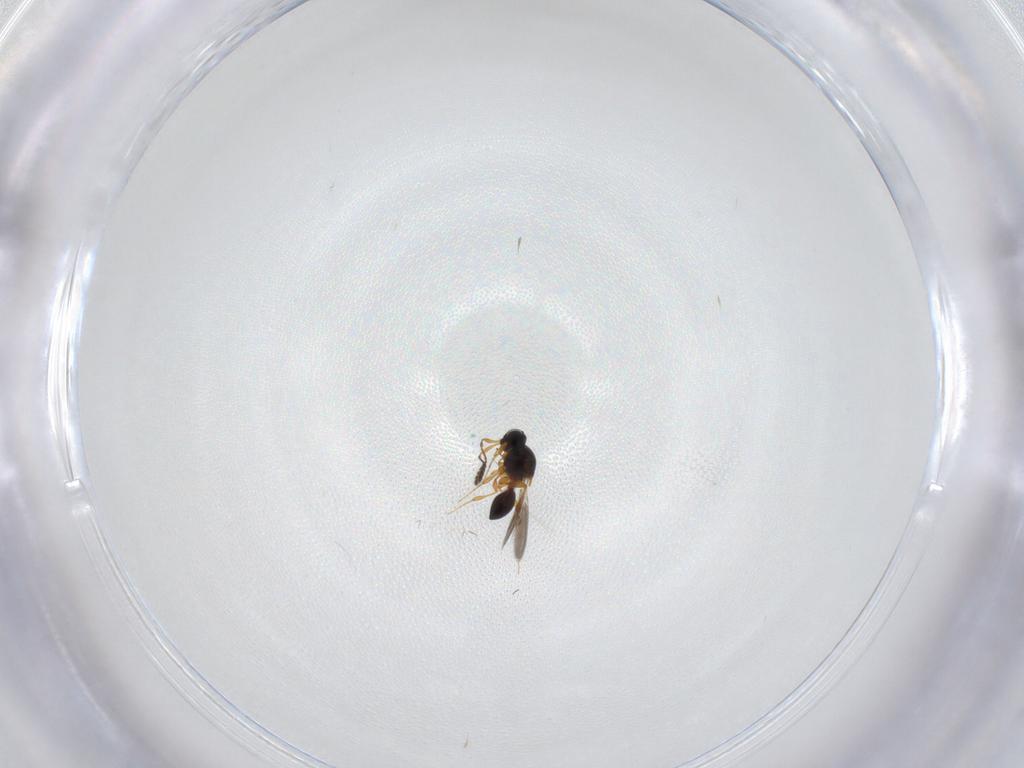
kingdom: Animalia
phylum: Arthropoda
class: Insecta
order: Hymenoptera
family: Platygastridae
